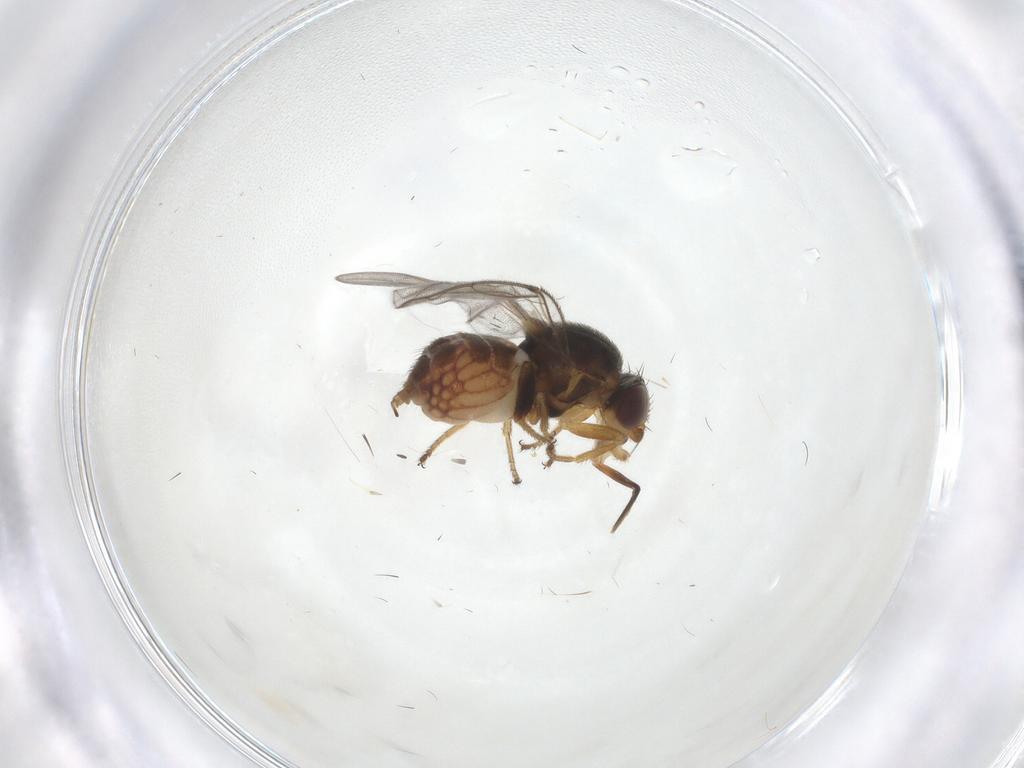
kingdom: Animalia
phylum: Arthropoda
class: Insecta
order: Diptera
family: Chloropidae
